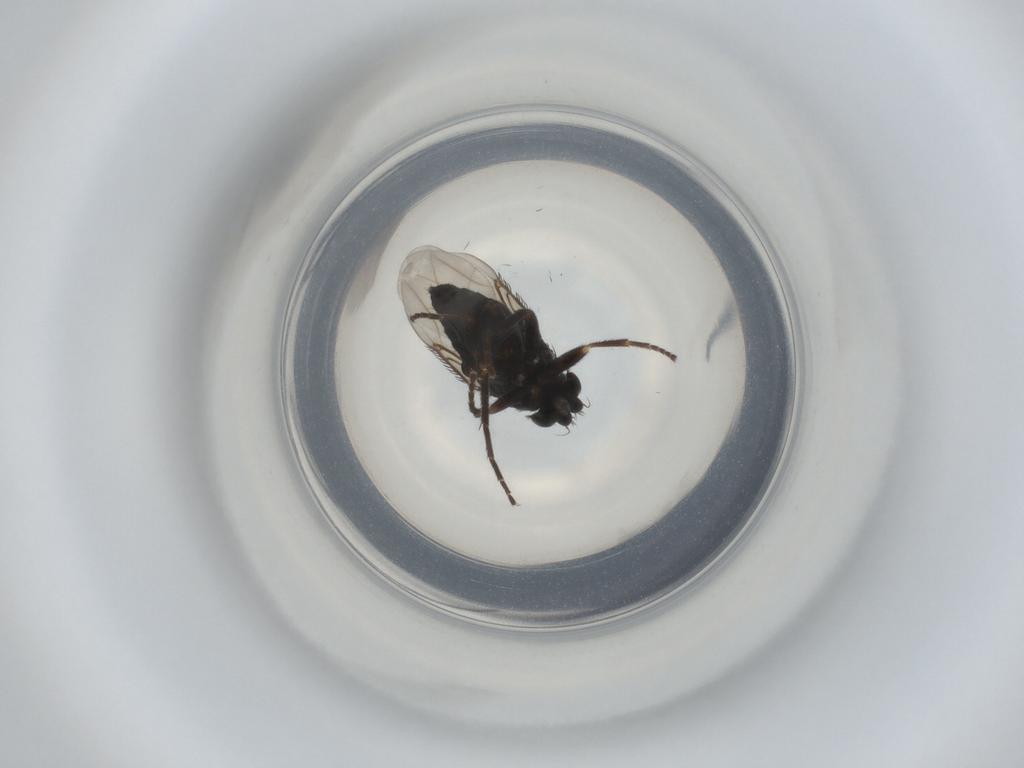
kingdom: Animalia
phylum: Arthropoda
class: Insecta
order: Diptera
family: Phoridae
